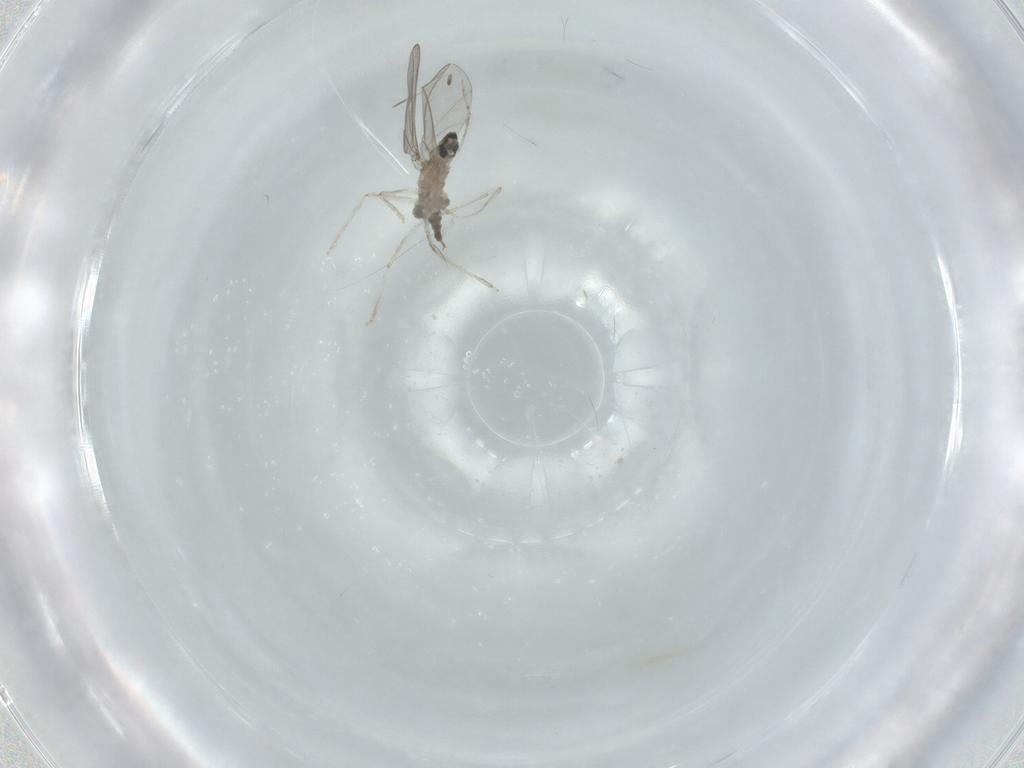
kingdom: Animalia
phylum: Arthropoda
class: Insecta
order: Diptera
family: Cecidomyiidae
